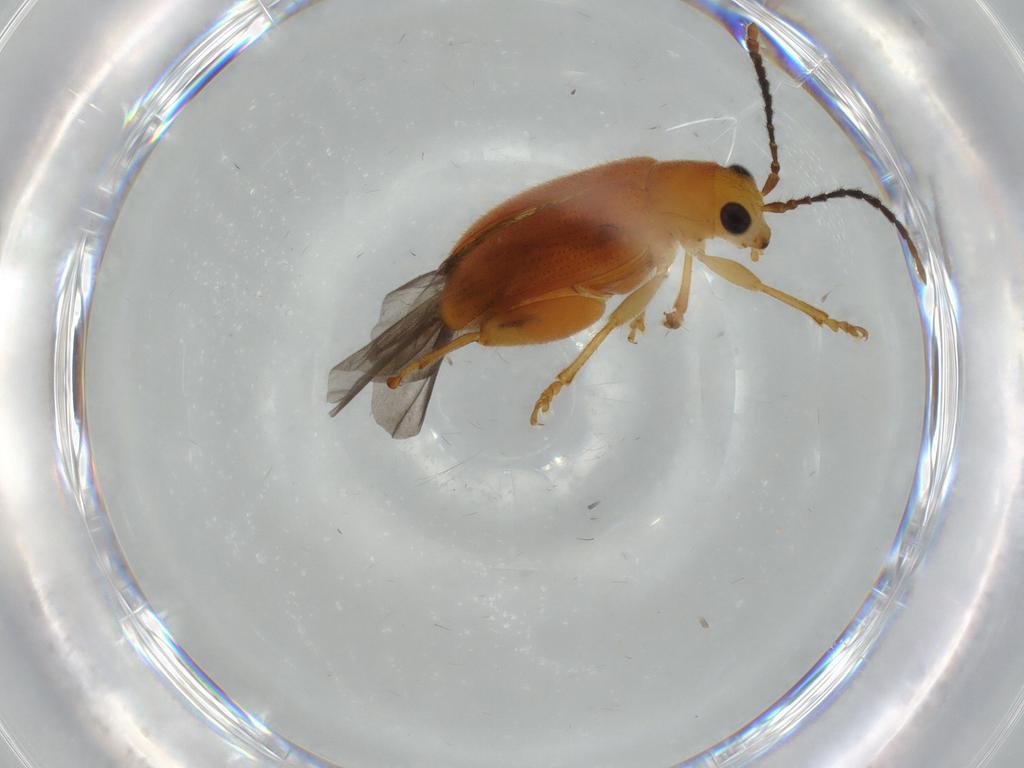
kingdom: Animalia
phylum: Arthropoda
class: Insecta
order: Coleoptera
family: Chrysomelidae
